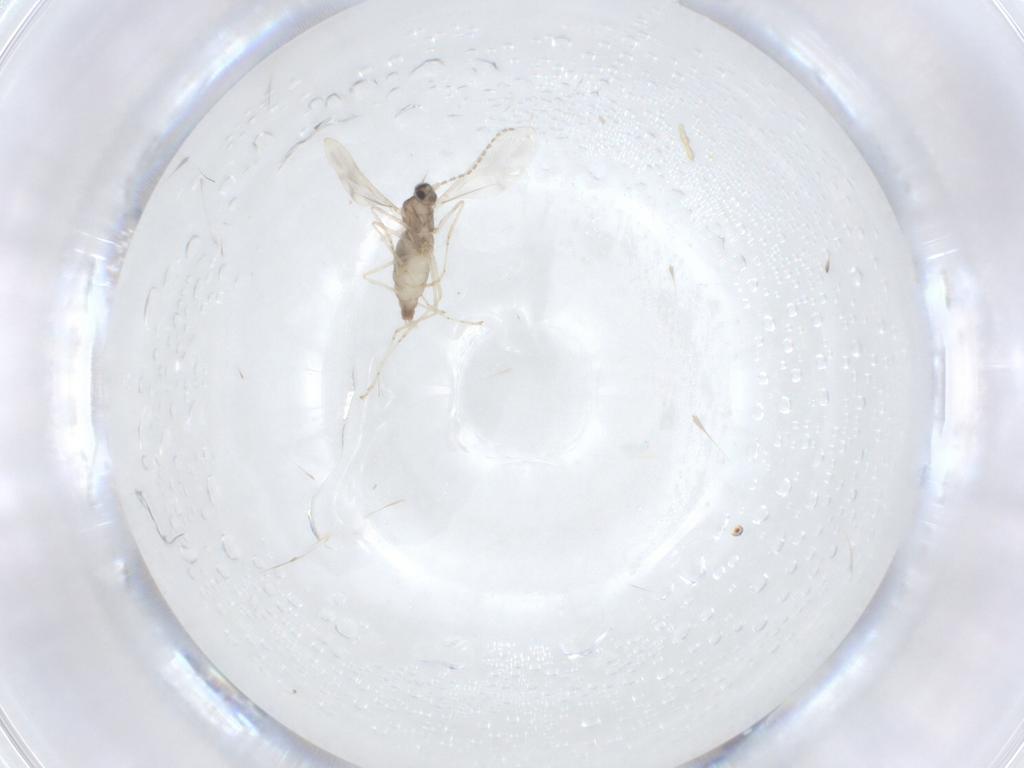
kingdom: Animalia
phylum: Arthropoda
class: Insecta
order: Diptera
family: Cecidomyiidae
